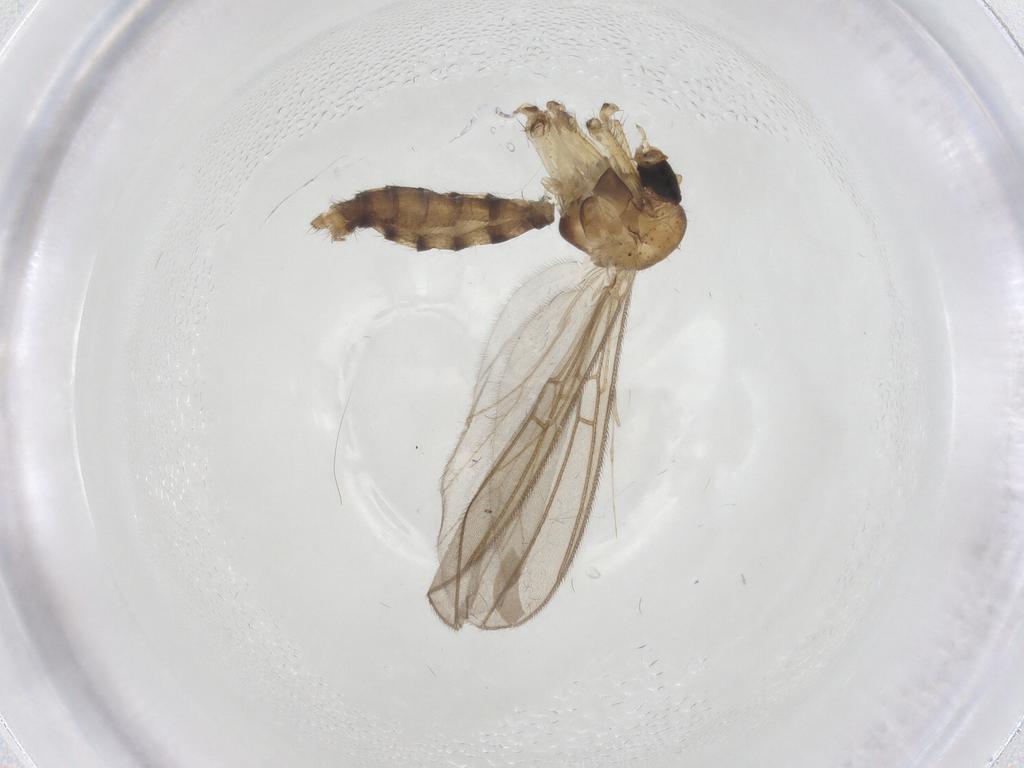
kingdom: Animalia
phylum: Arthropoda
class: Insecta
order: Diptera
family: Mycetophilidae
